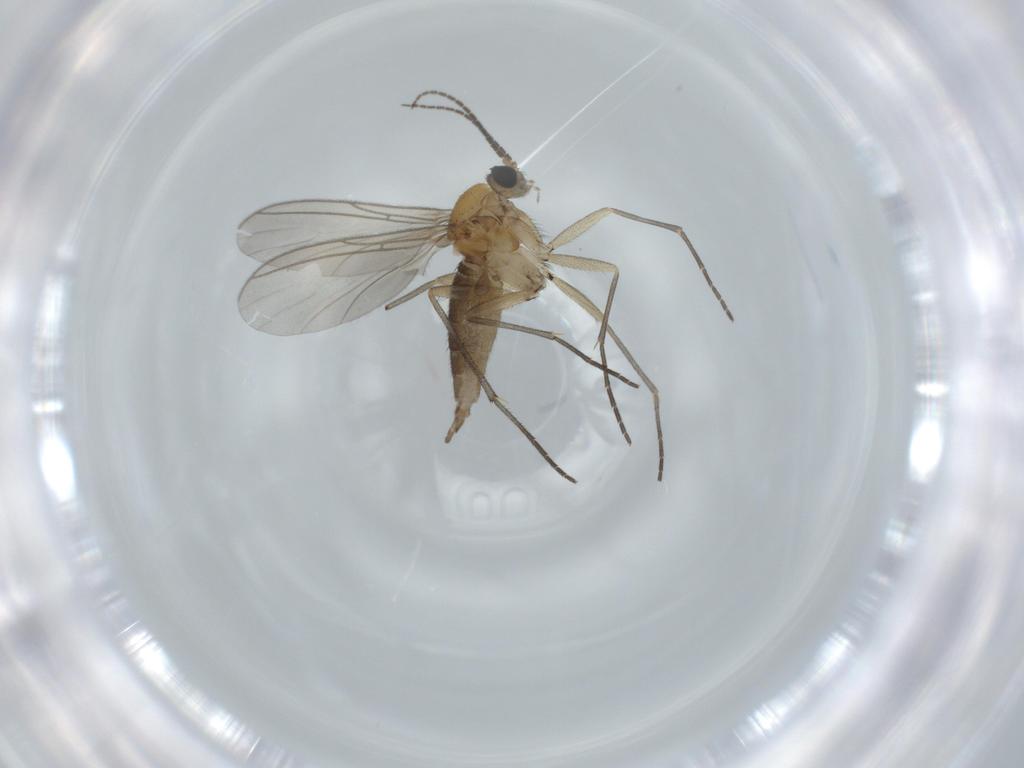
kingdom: Animalia
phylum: Arthropoda
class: Insecta
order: Diptera
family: Sciaridae
